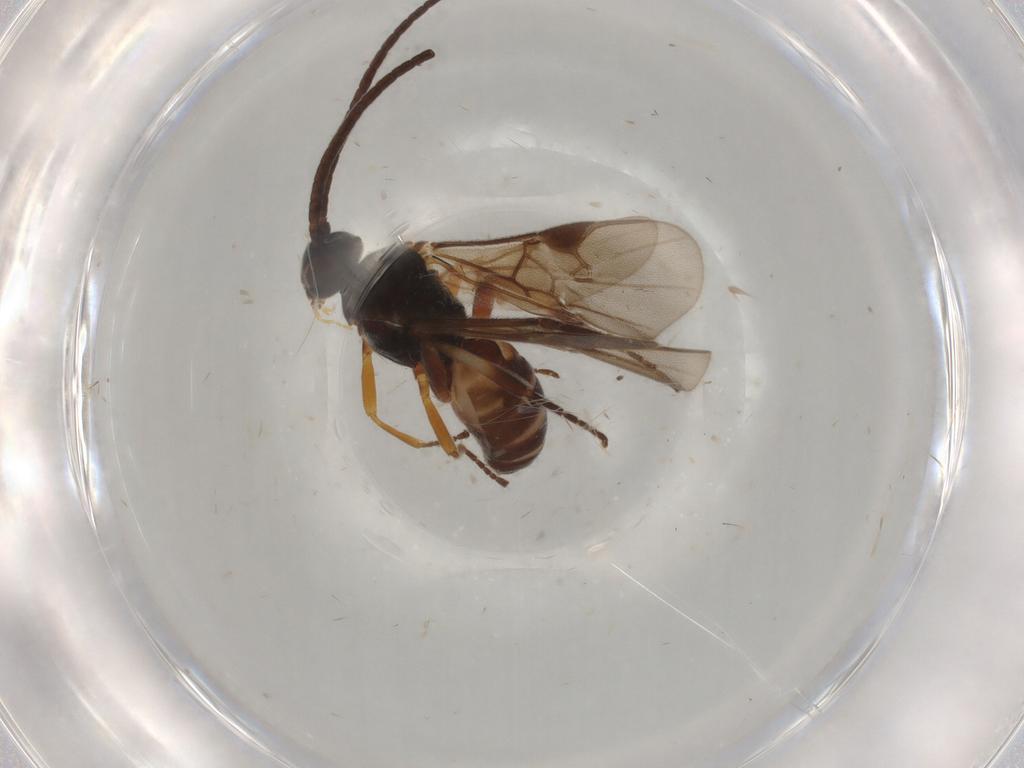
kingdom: Animalia
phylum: Arthropoda
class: Insecta
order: Hymenoptera
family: Braconidae
